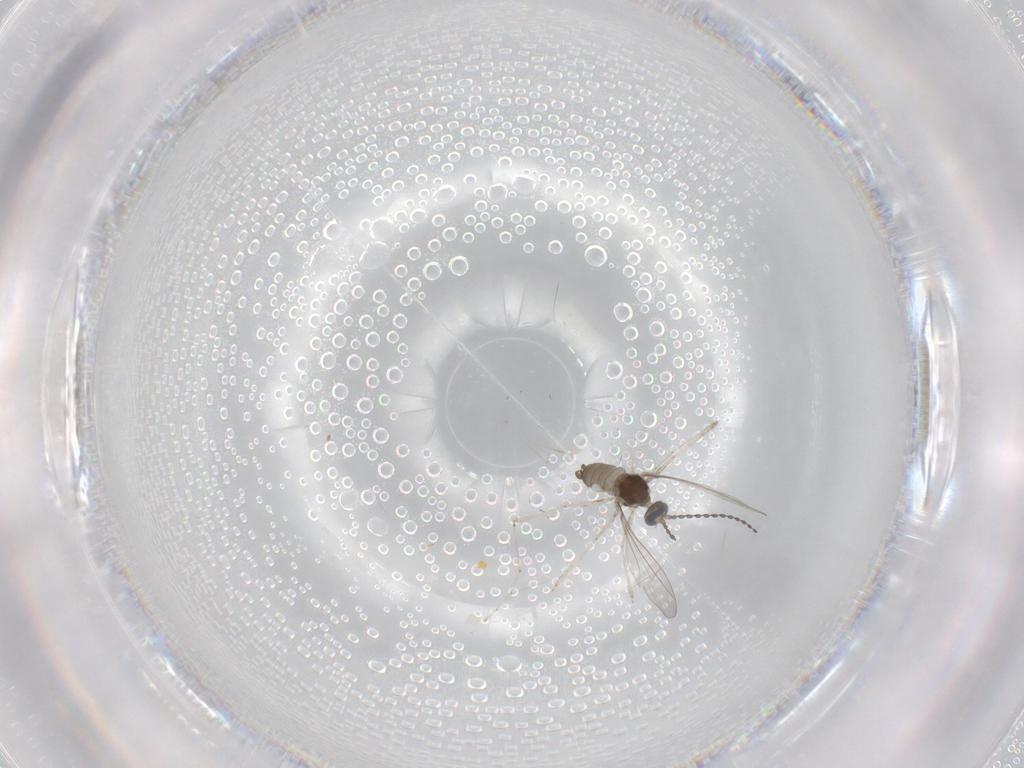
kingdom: Animalia
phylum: Arthropoda
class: Insecta
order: Diptera
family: Cecidomyiidae
